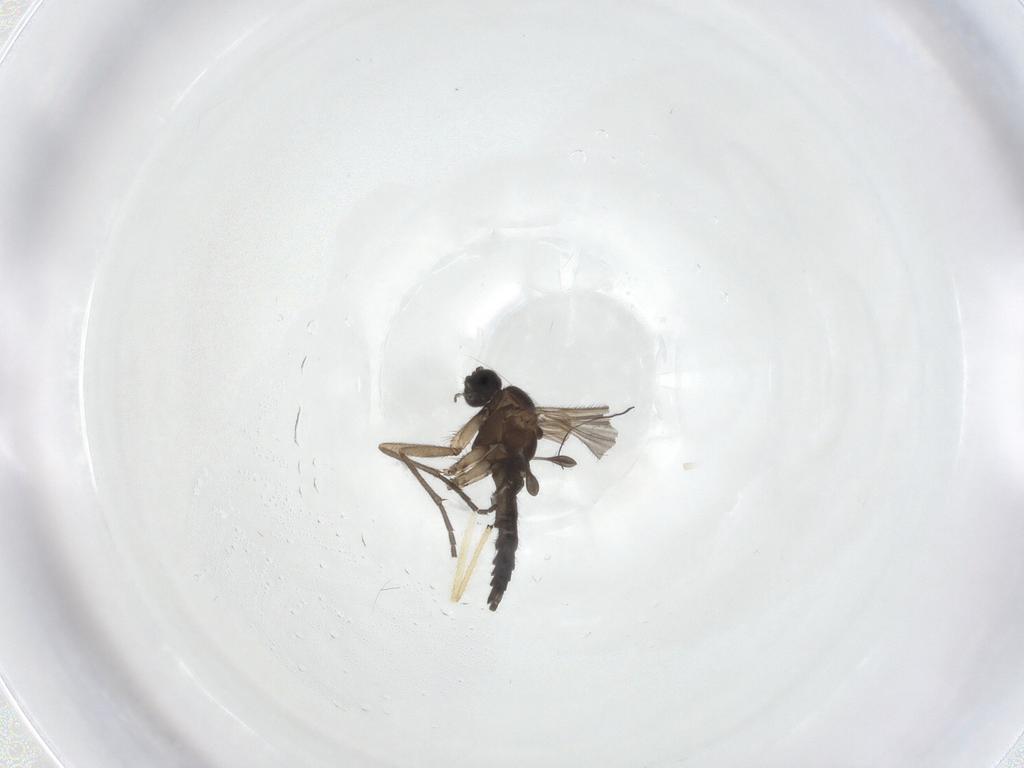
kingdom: Animalia
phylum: Arthropoda
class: Insecta
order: Diptera
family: Sciaridae
